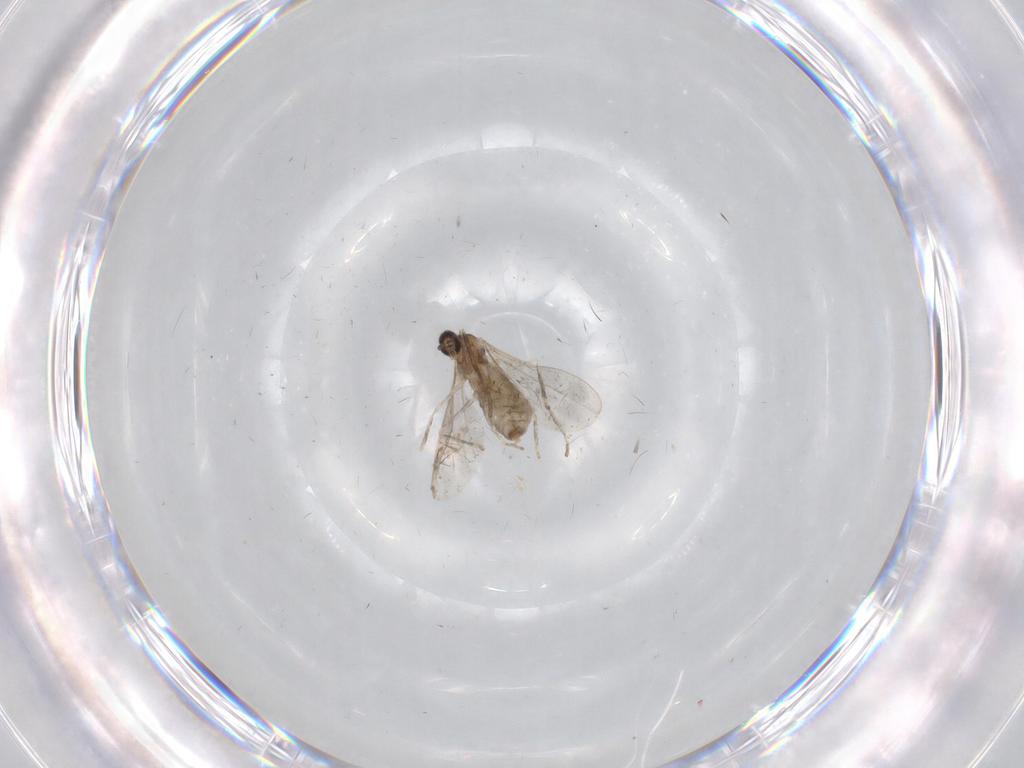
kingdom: Animalia
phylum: Arthropoda
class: Insecta
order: Diptera
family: Cecidomyiidae
